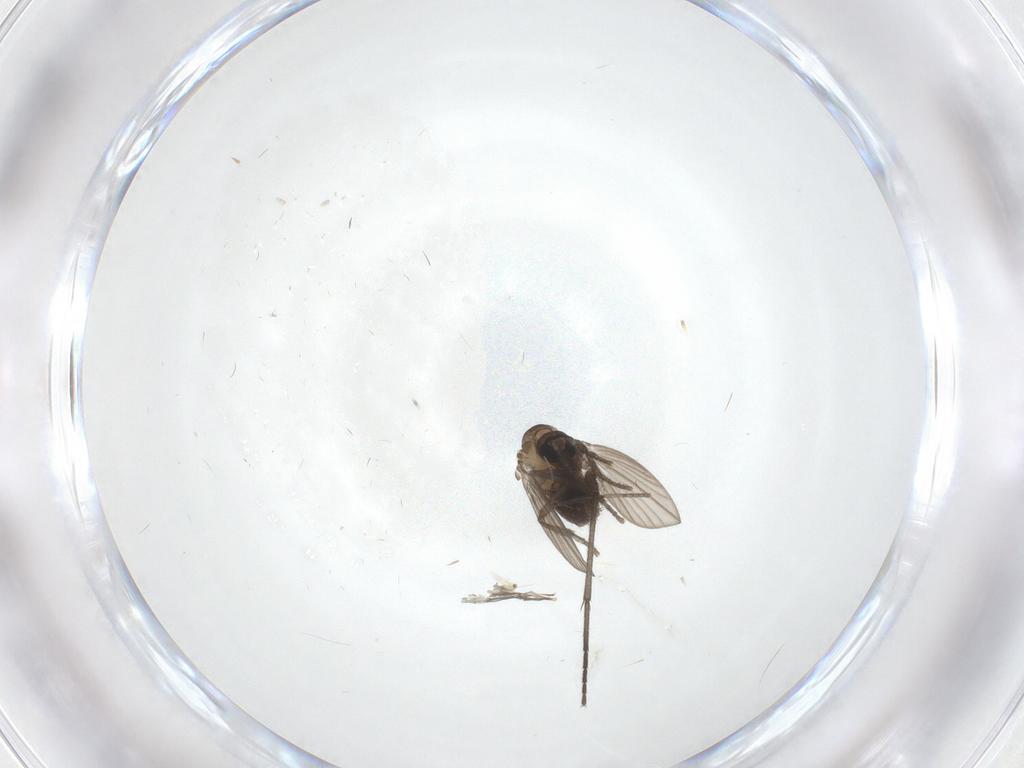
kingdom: Animalia
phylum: Arthropoda
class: Insecta
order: Diptera
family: Psychodidae
